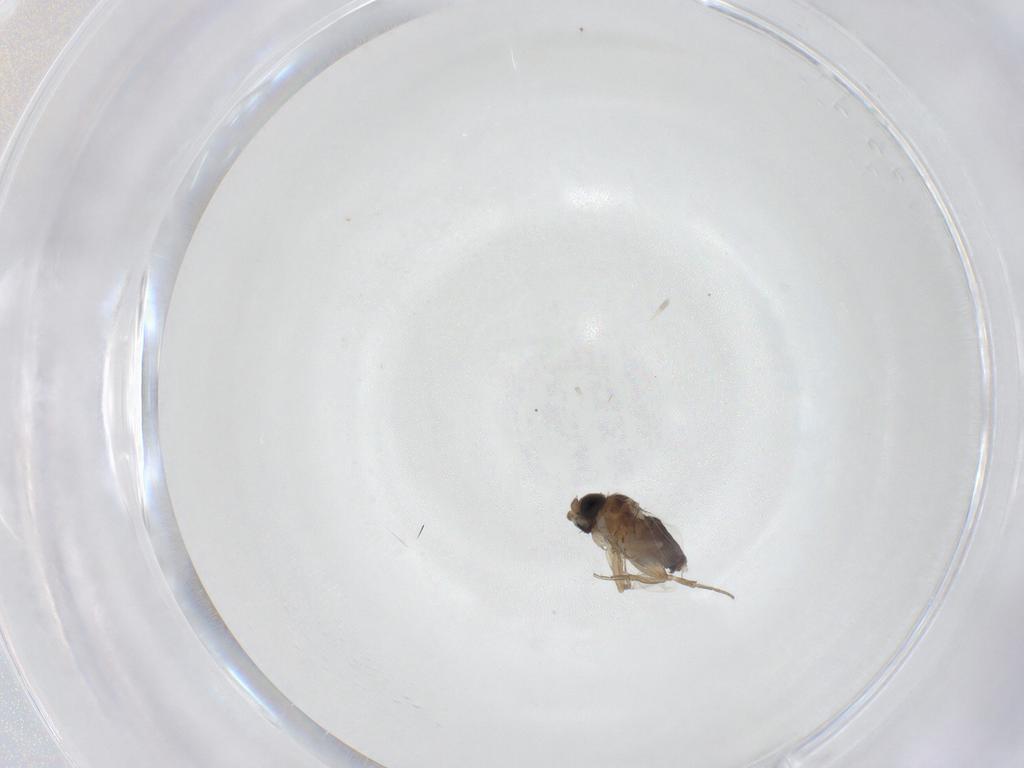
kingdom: Animalia
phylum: Arthropoda
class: Insecta
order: Diptera
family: Phoridae
